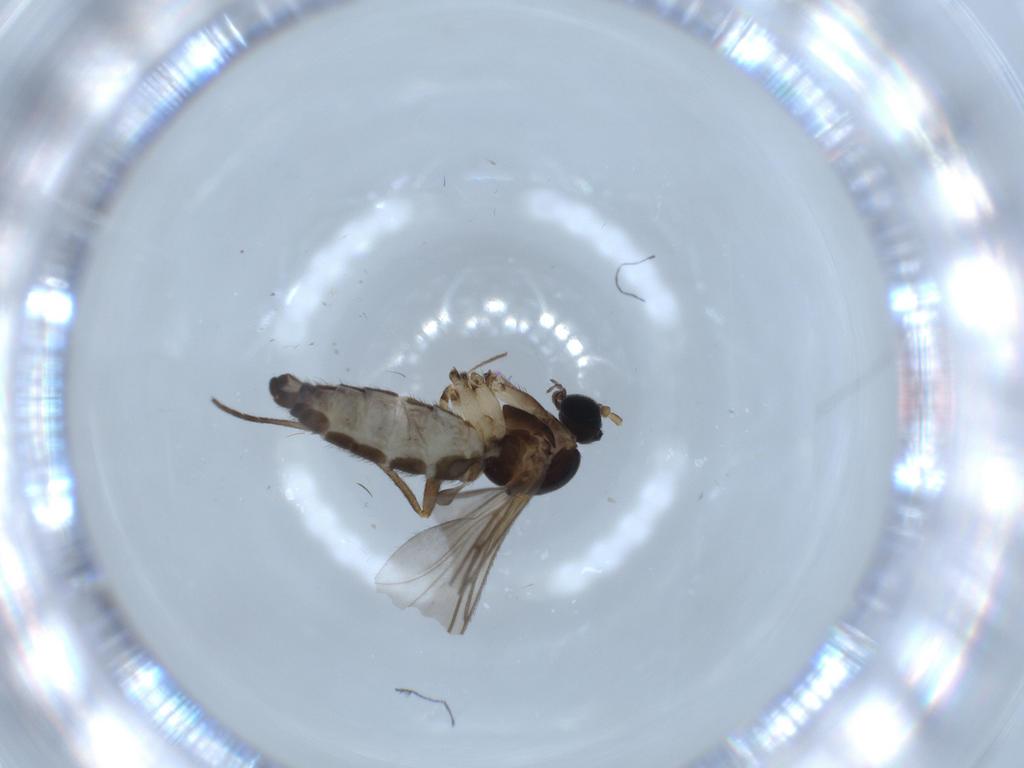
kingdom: Animalia
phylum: Arthropoda
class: Insecta
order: Diptera
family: Sciaridae
